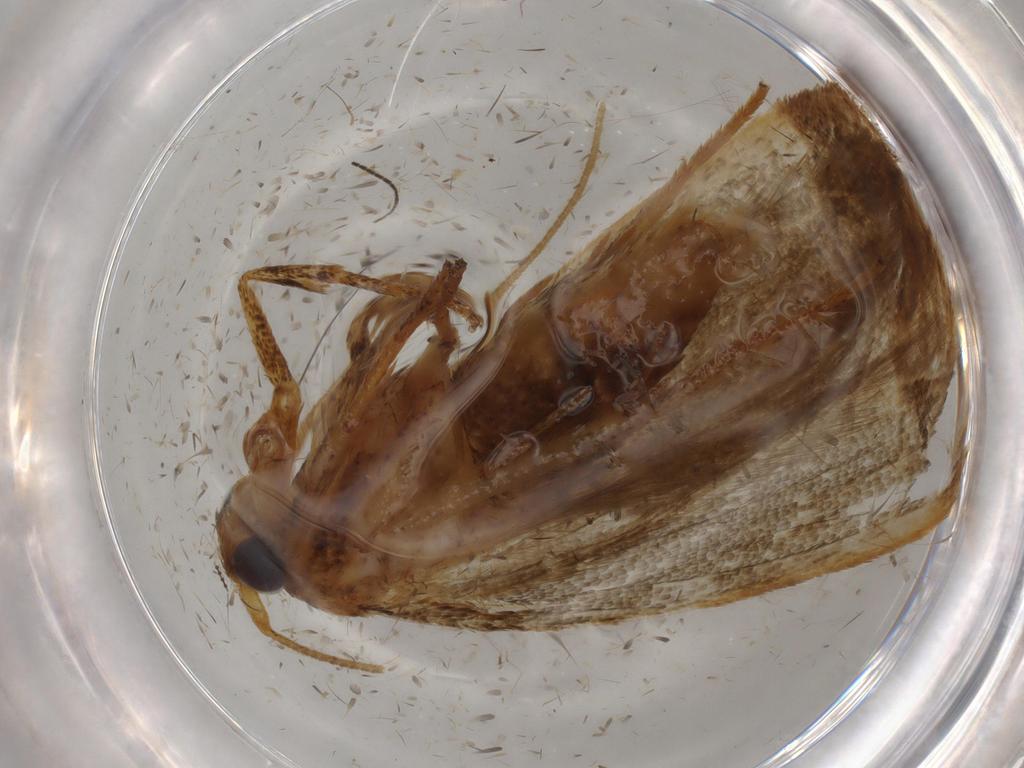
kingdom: Animalia
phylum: Arthropoda
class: Insecta
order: Lepidoptera
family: Blastobasidae
